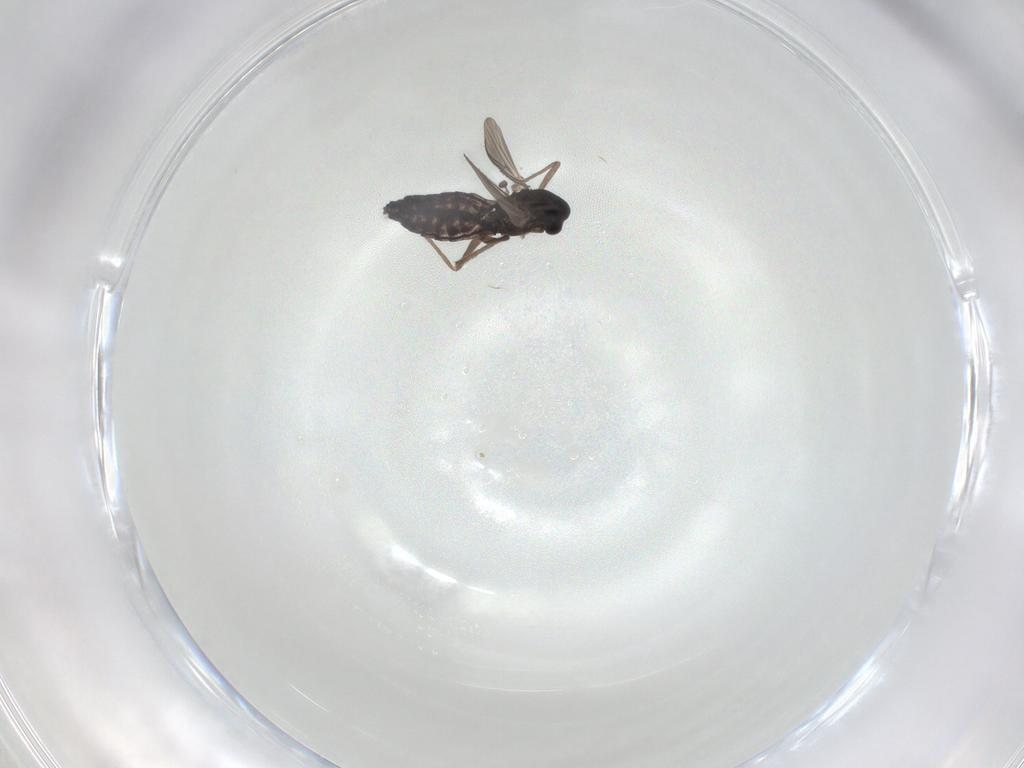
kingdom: Animalia
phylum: Arthropoda
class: Insecta
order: Diptera
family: Chironomidae
